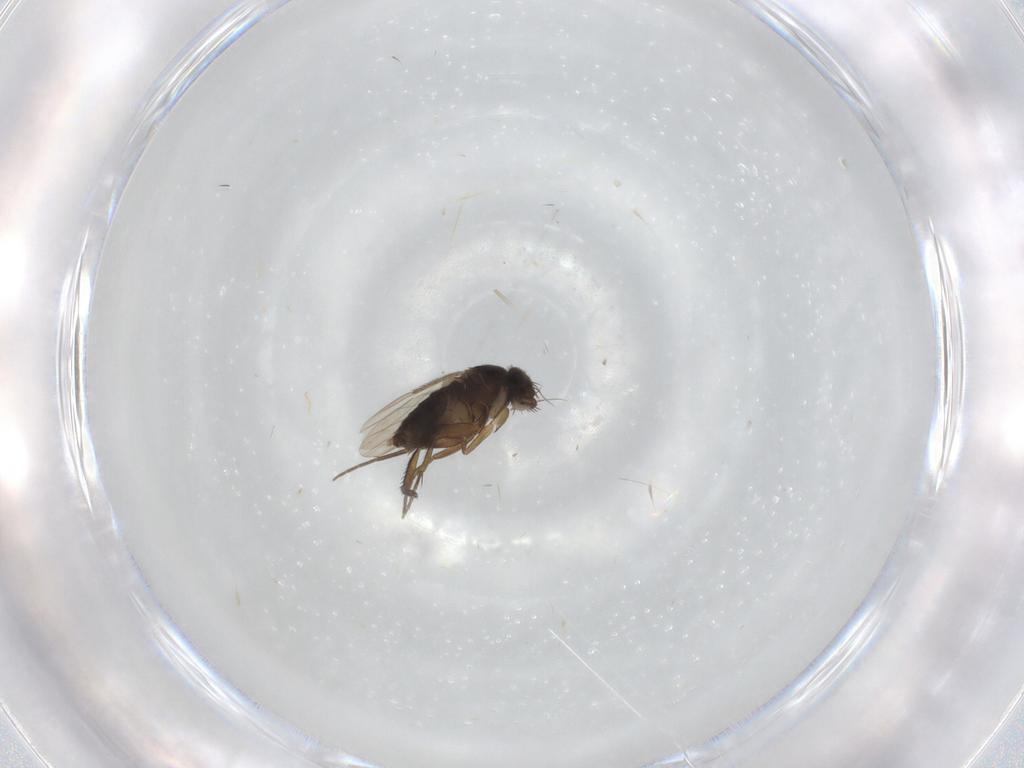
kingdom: Animalia
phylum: Arthropoda
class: Insecta
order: Diptera
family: Phoridae
